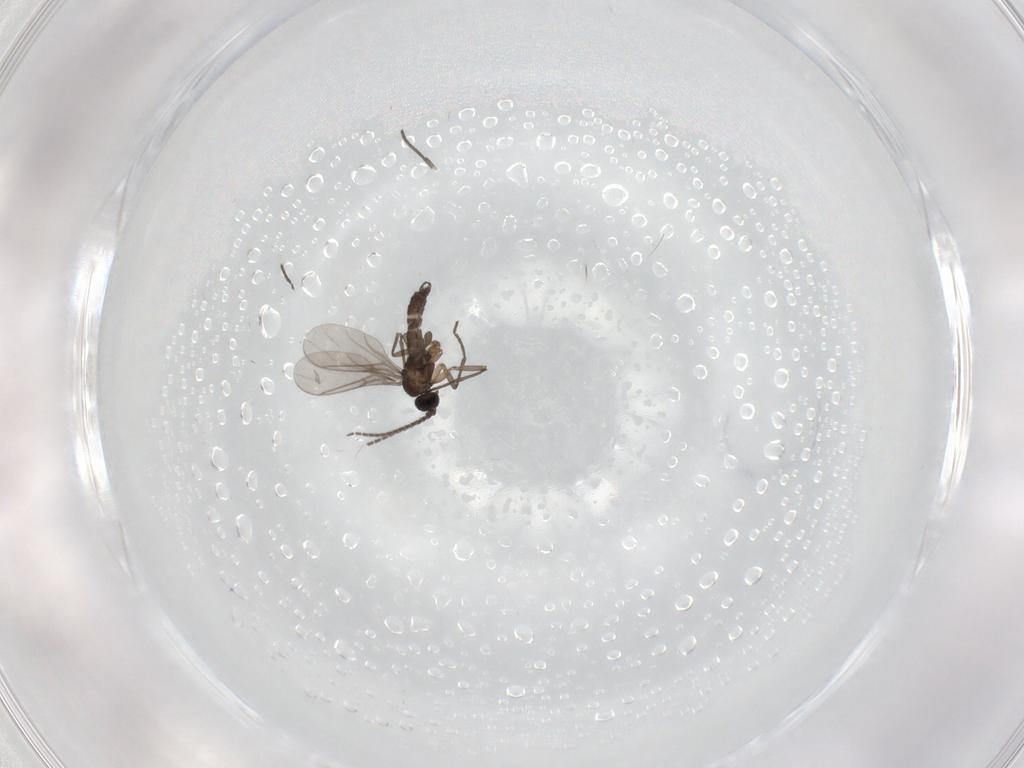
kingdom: Animalia
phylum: Arthropoda
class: Insecta
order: Diptera
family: Sciaridae
